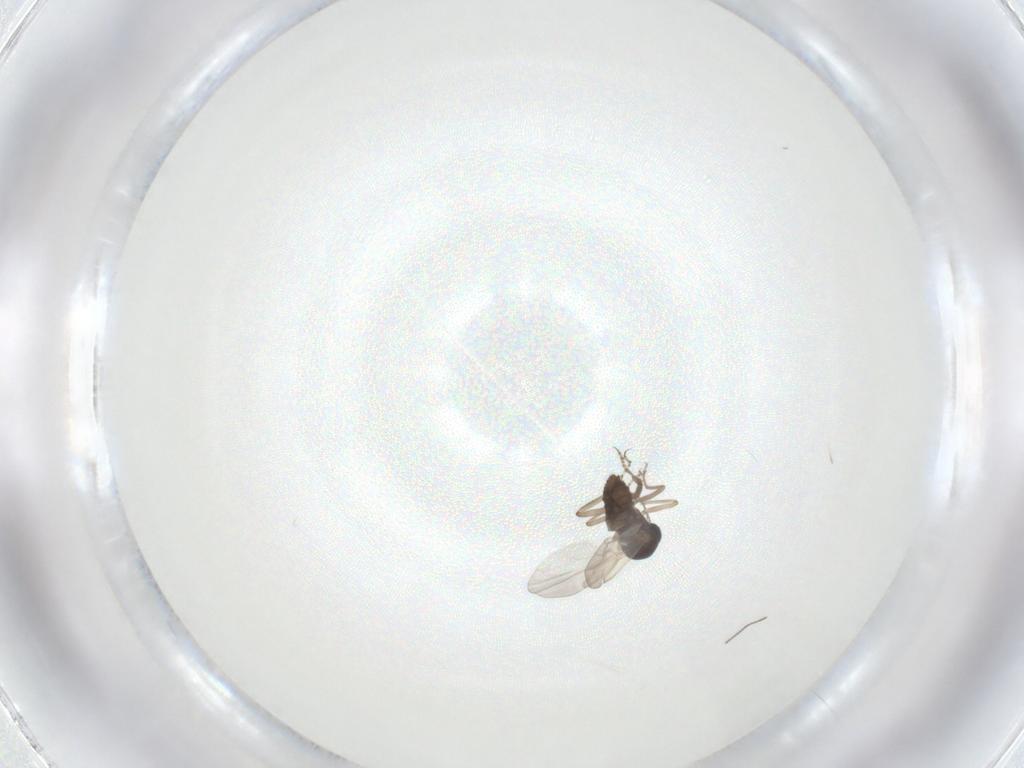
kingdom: Animalia
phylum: Arthropoda
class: Insecta
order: Diptera
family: Ceratopogonidae
